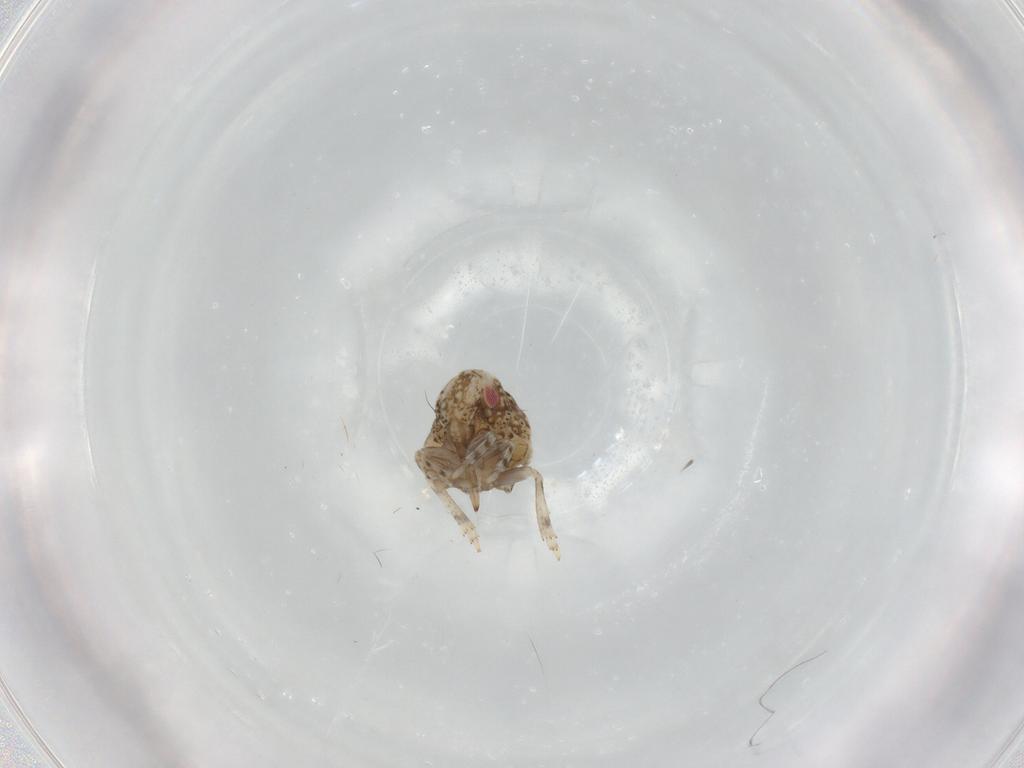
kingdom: Animalia
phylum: Arthropoda
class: Insecta
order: Hemiptera
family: Acanaloniidae
